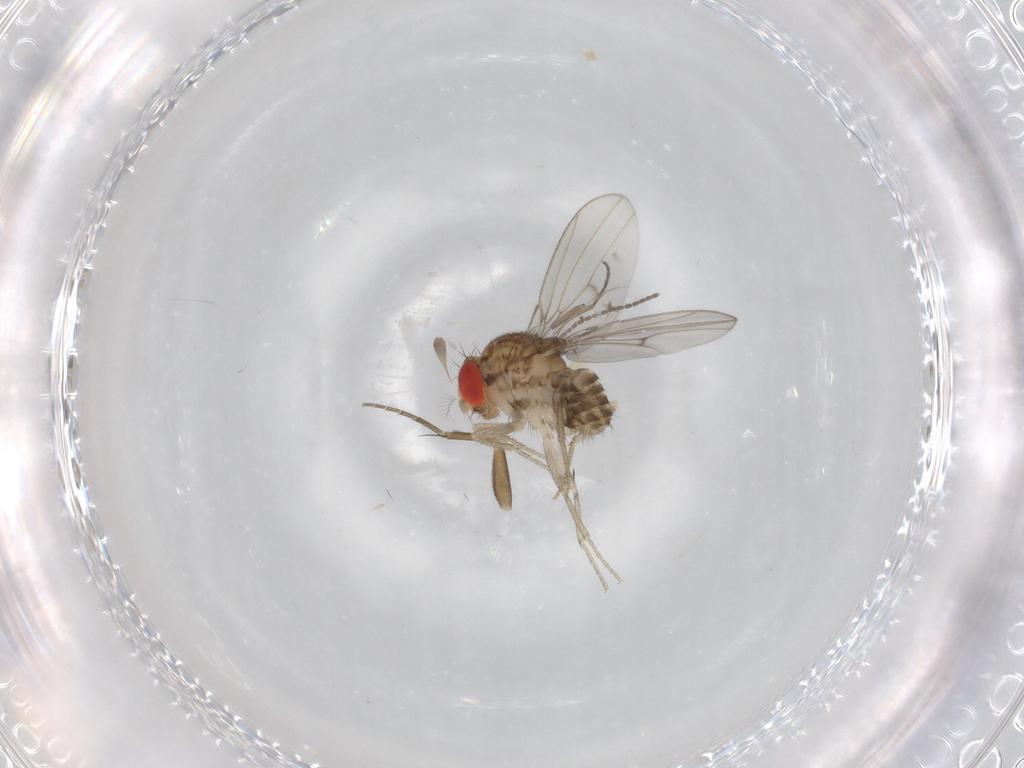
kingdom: Animalia
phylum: Arthropoda
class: Insecta
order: Diptera
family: Drosophilidae
